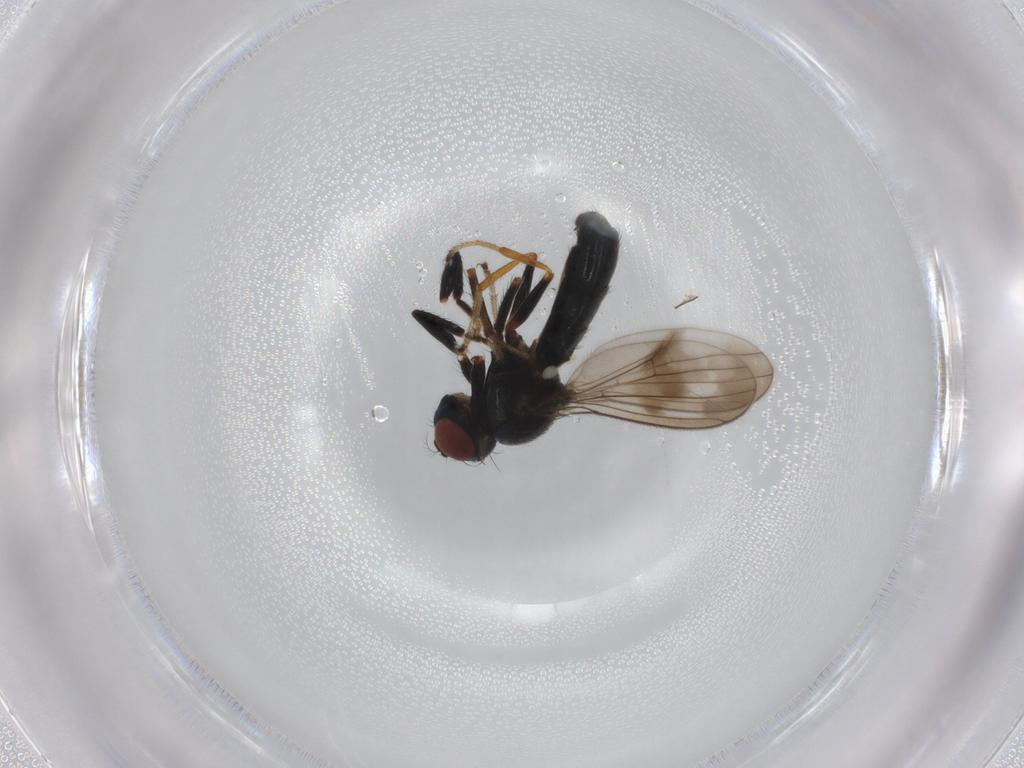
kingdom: Animalia
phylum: Arthropoda
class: Insecta
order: Diptera
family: Ephydridae
